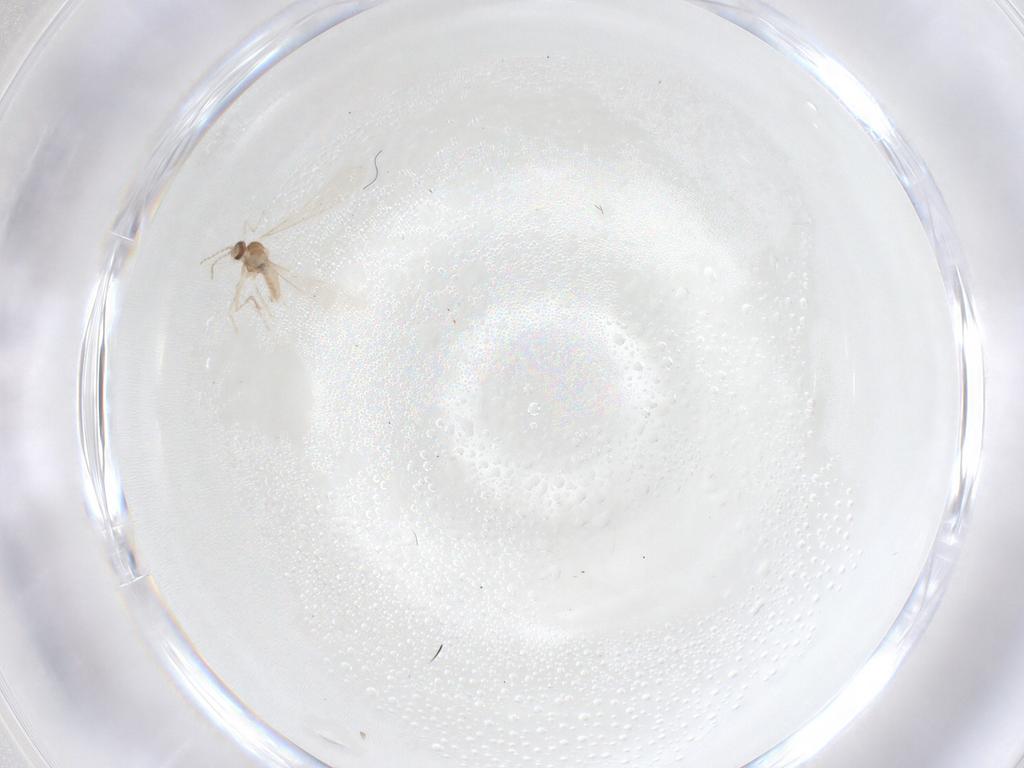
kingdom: Animalia
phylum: Arthropoda
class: Insecta
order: Diptera
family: Cecidomyiidae
